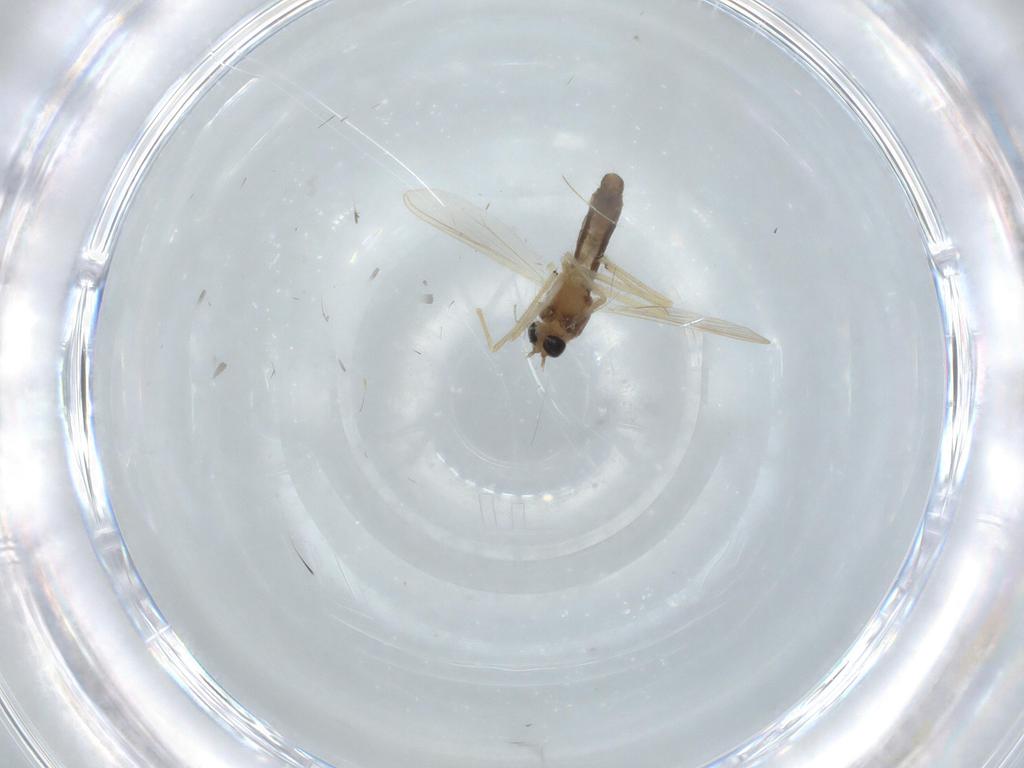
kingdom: Animalia
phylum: Arthropoda
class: Insecta
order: Diptera
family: Chironomidae
